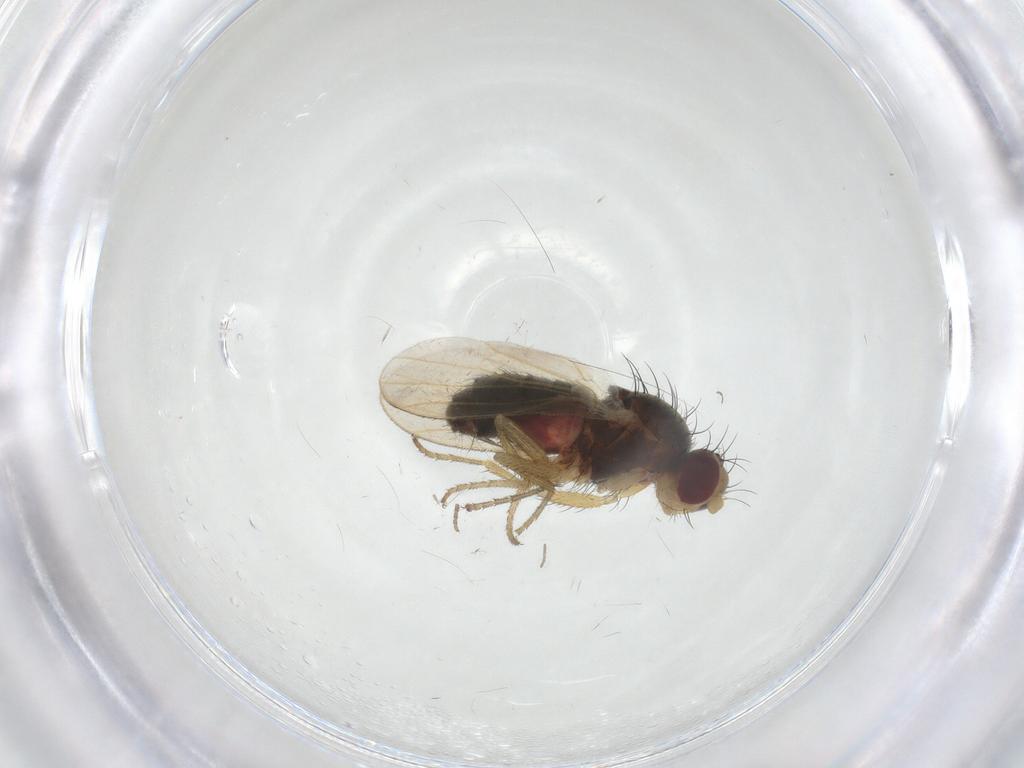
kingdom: Animalia
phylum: Arthropoda
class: Insecta
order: Diptera
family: Heleomyzidae
